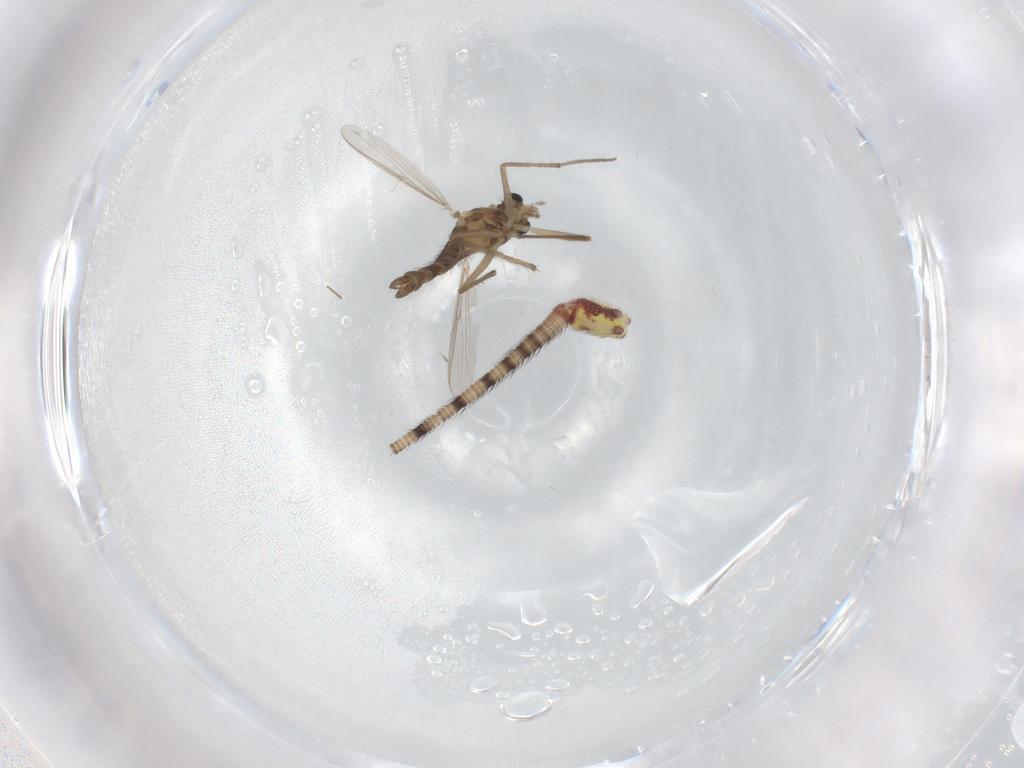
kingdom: Animalia
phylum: Arthropoda
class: Insecta
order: Diptera
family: Chironomidae
